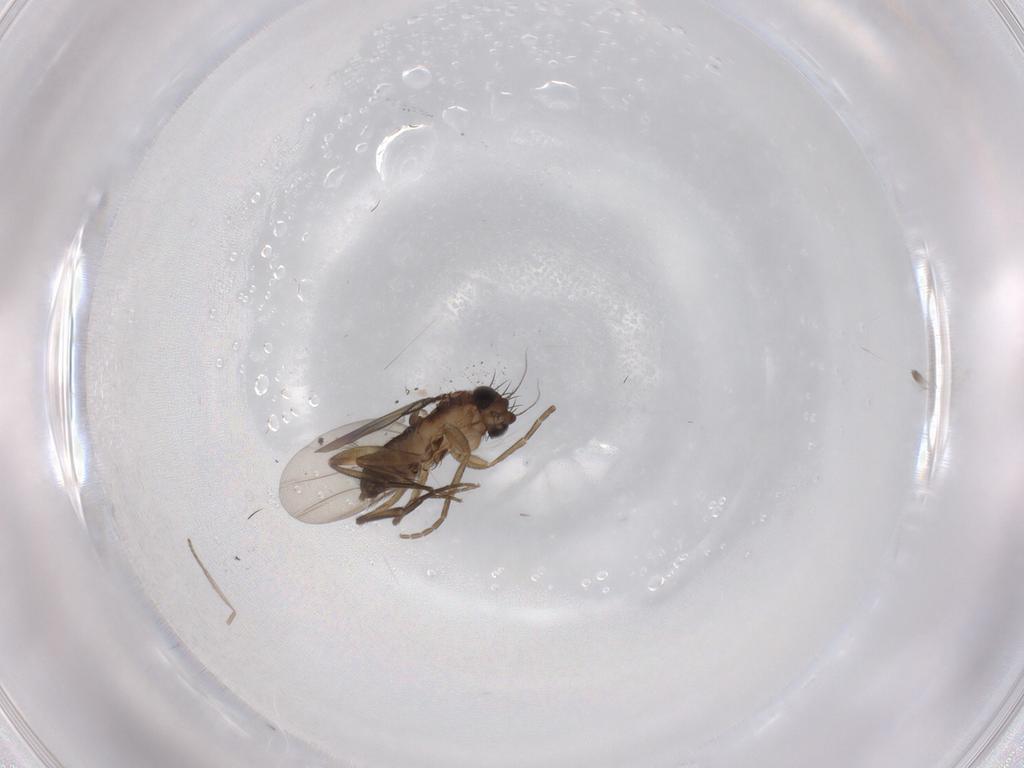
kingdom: Animalia
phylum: Arthropoda
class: Insecta
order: Diptera
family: Phoridae
